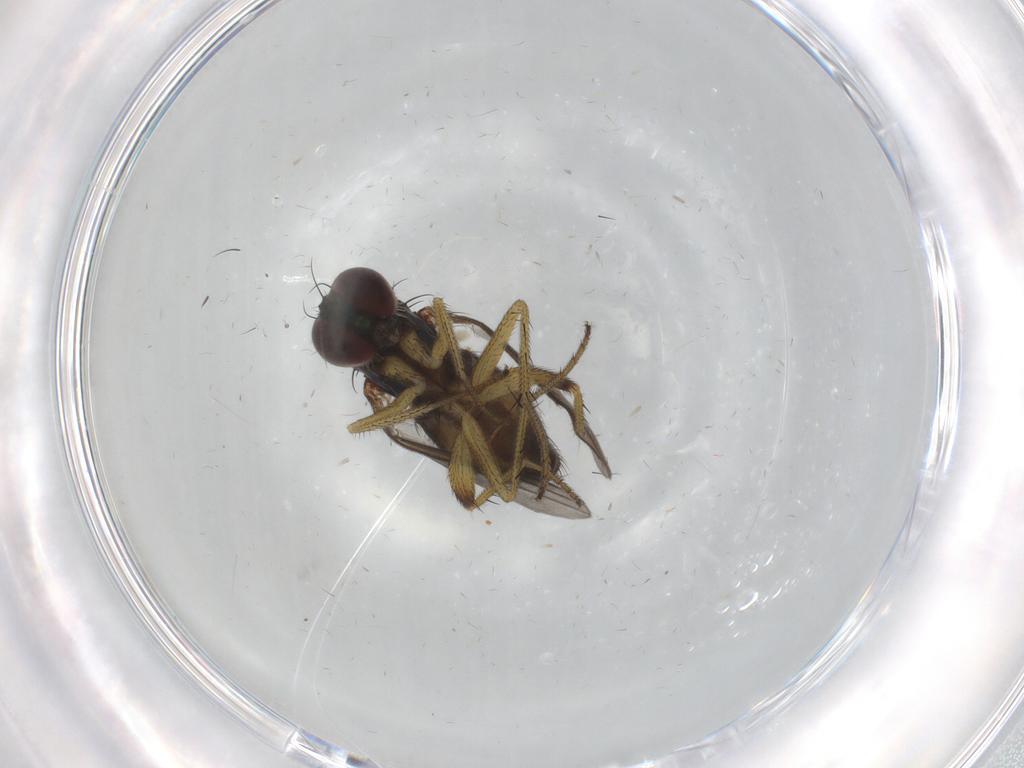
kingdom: Animalia
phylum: Arthropoda
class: Insecta
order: Diptera
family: Dolichopodidae
